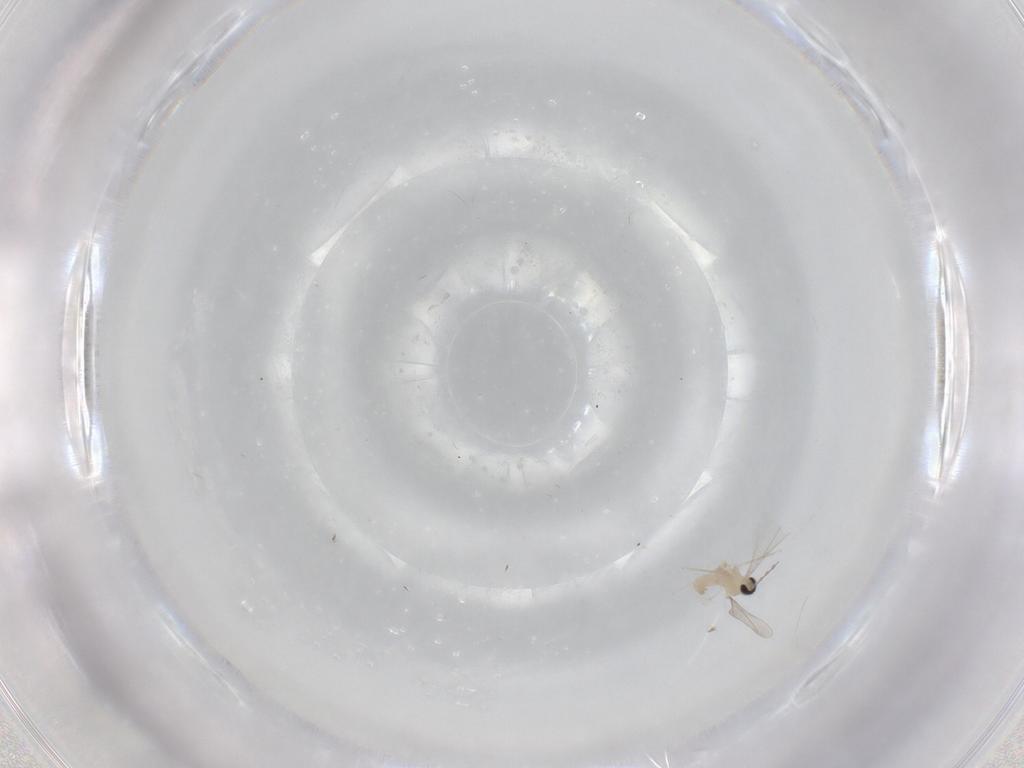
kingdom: Animalia
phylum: Arthropoda
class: Insecta
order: Diptera
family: Cecidomyiidae
